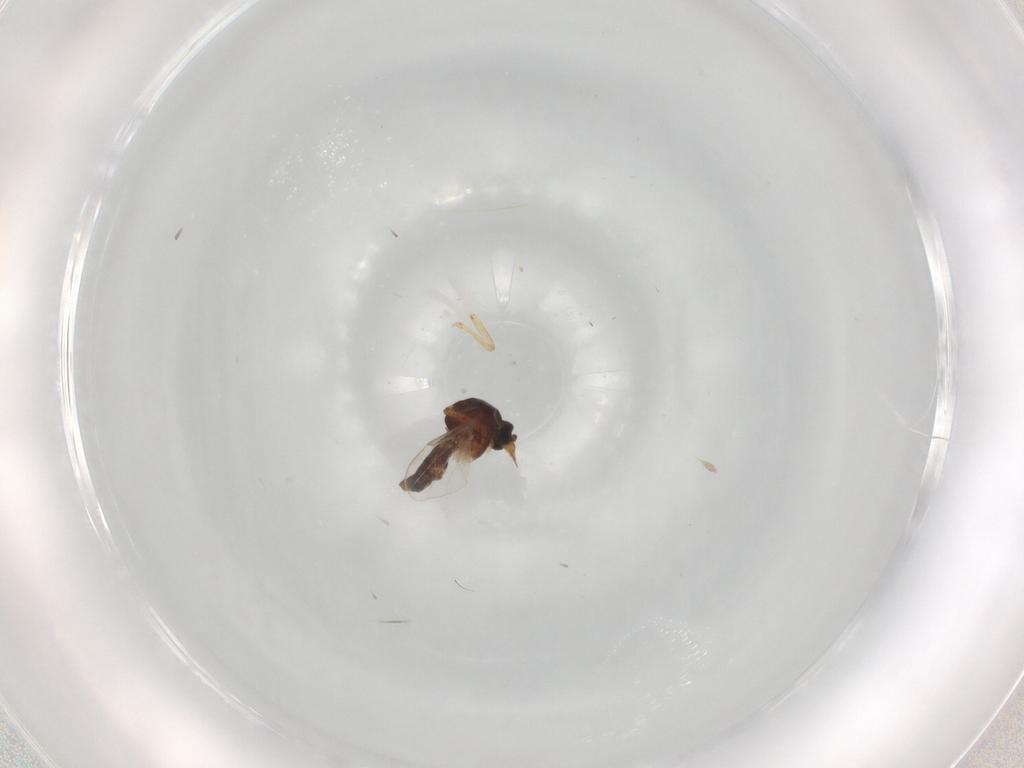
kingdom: Animalia
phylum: Arthropoda
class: Insecta
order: Diptera
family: Ceratopogonidae
